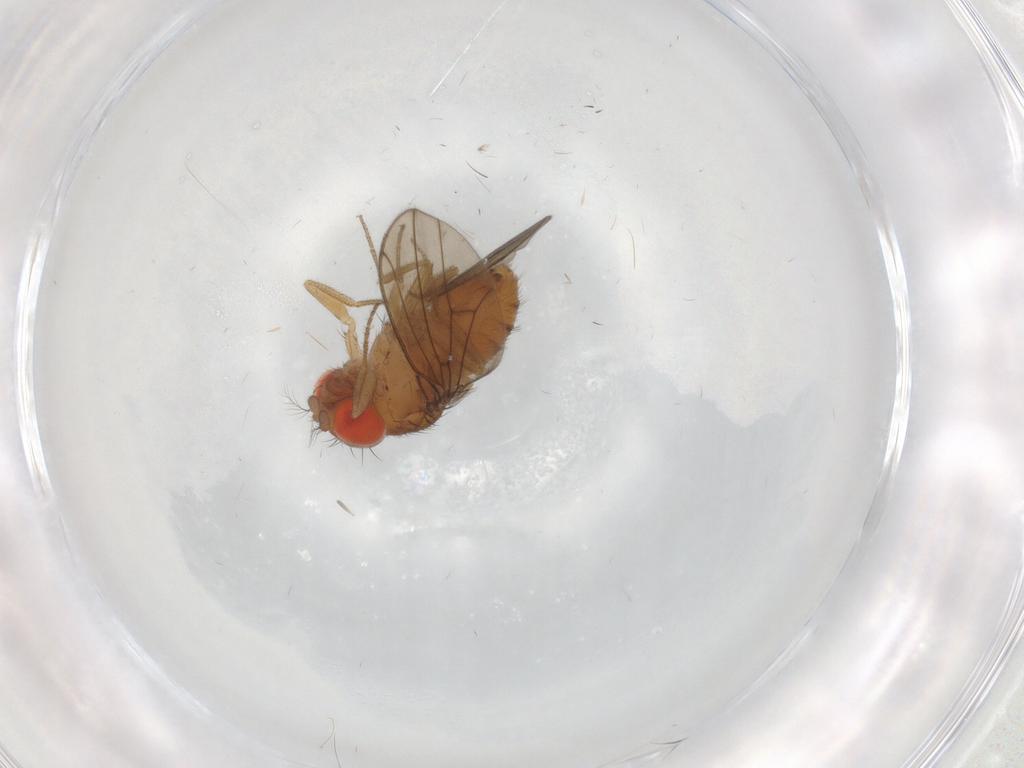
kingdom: Animalia
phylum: Arthropoda
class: Insecta
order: Diptera
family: Drosophilidae
